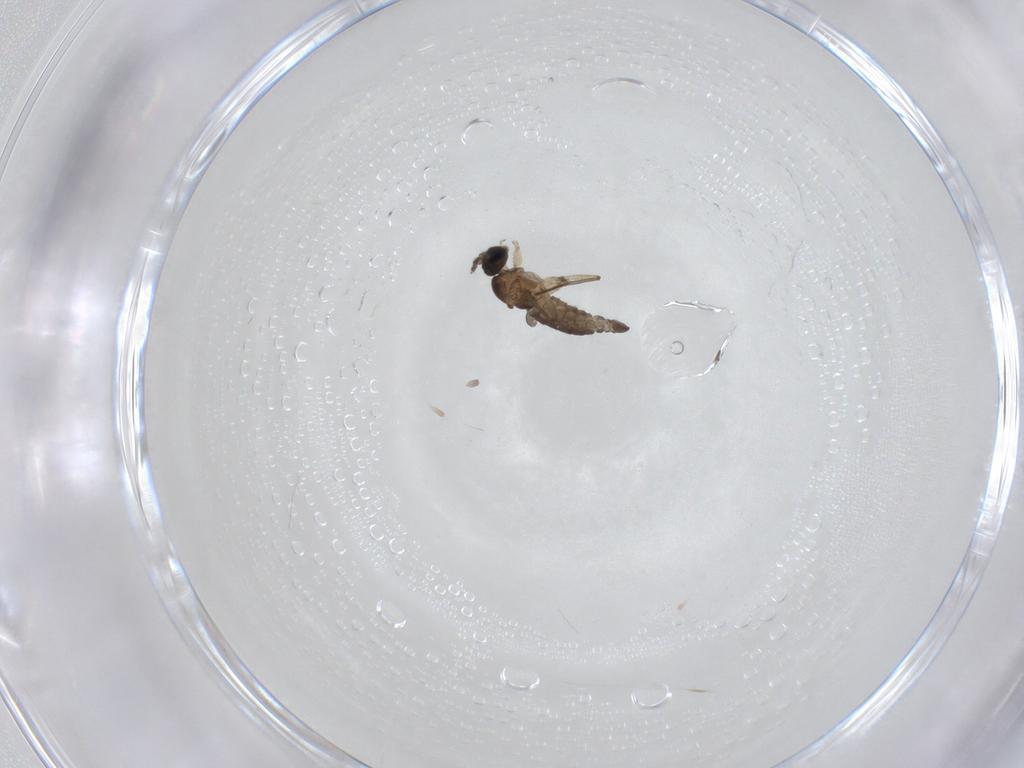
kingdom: Animalia
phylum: Arthropoda
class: Insecta
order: Diptera
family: Sciaridae
